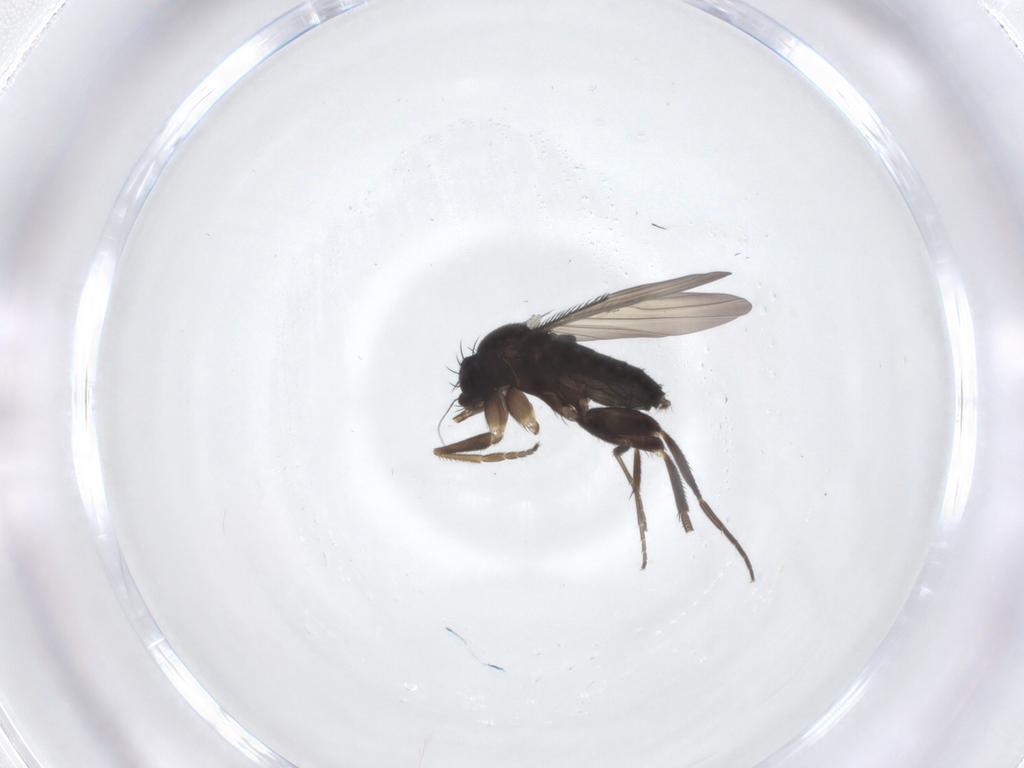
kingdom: Animalia
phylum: Arthropoda
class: Insecta
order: Diptera
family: Phoridae
